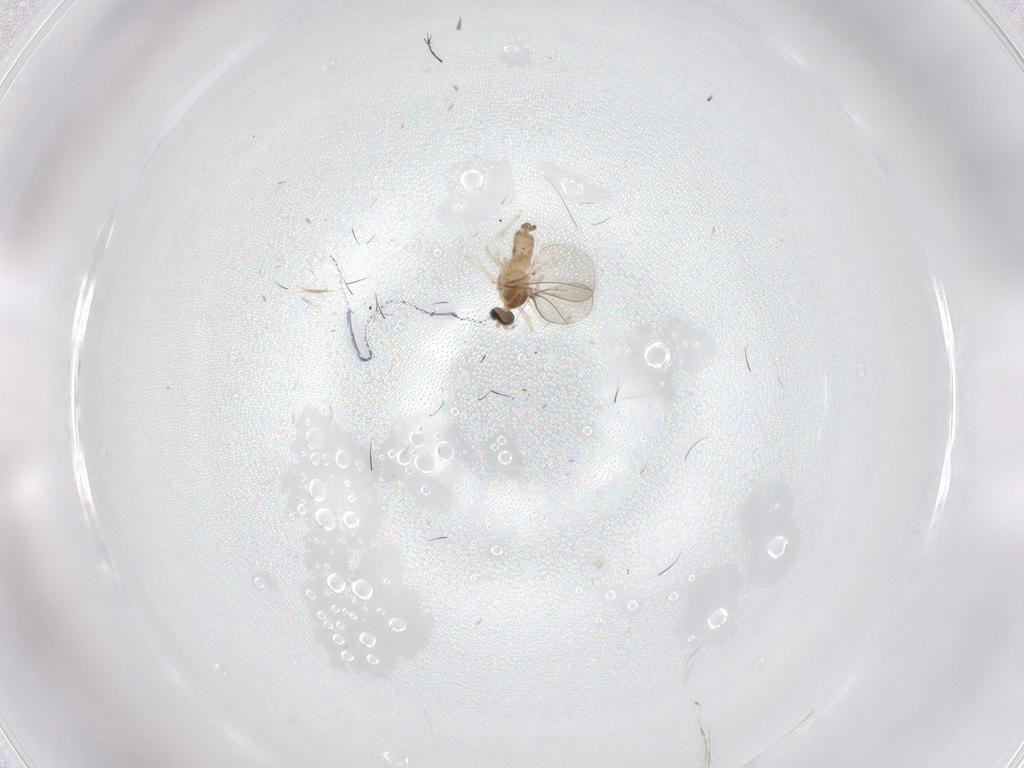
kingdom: Animalia
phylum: Arthropoda
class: Insecta
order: Diptera
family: Cecidomyiidae
